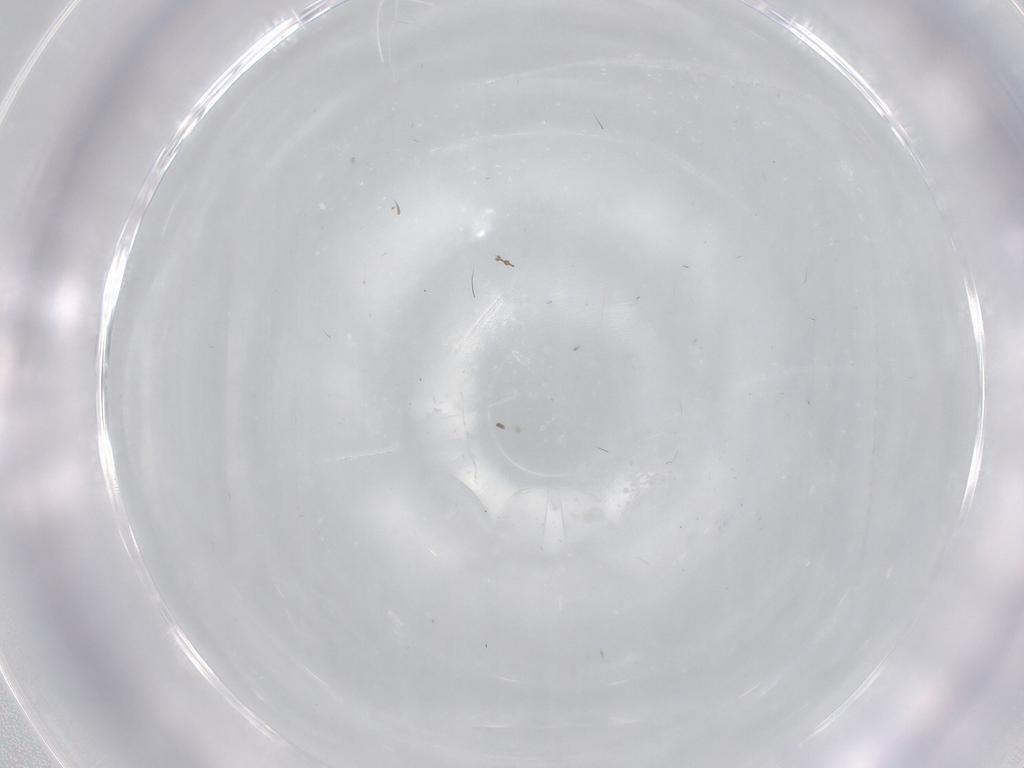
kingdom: Animalia
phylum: Arthropoda
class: Insecta
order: Coleoptera
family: Staphylinidae
